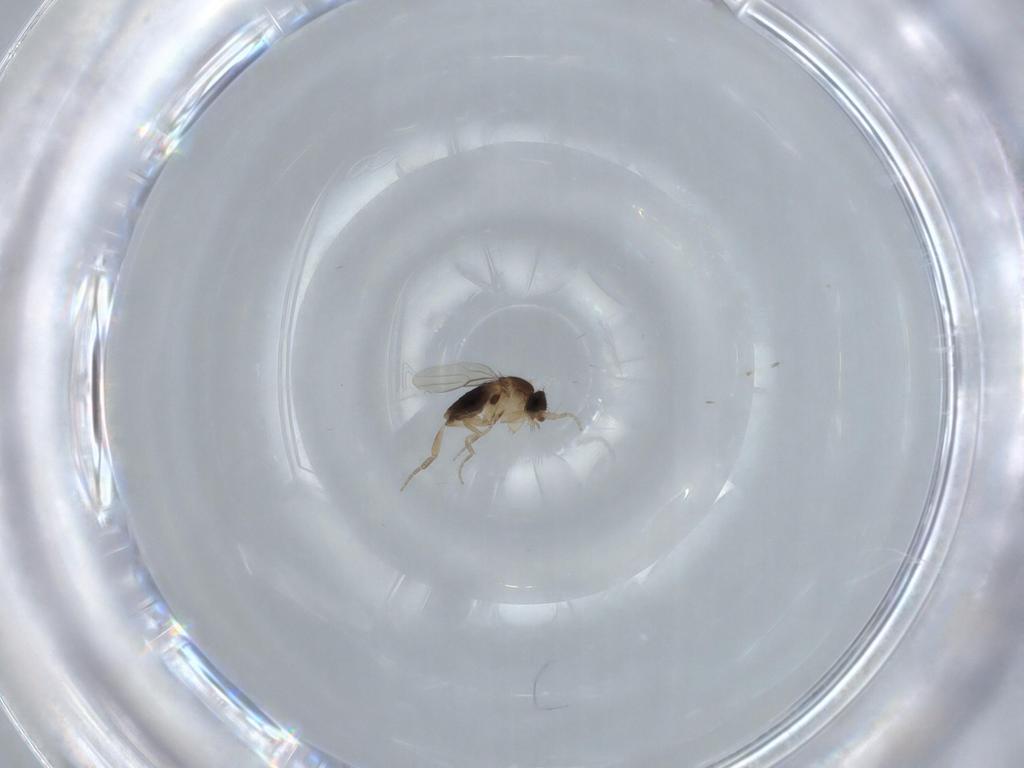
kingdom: Animalia
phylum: Arthropoda
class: Insecta
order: Diptera
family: Phoridae
